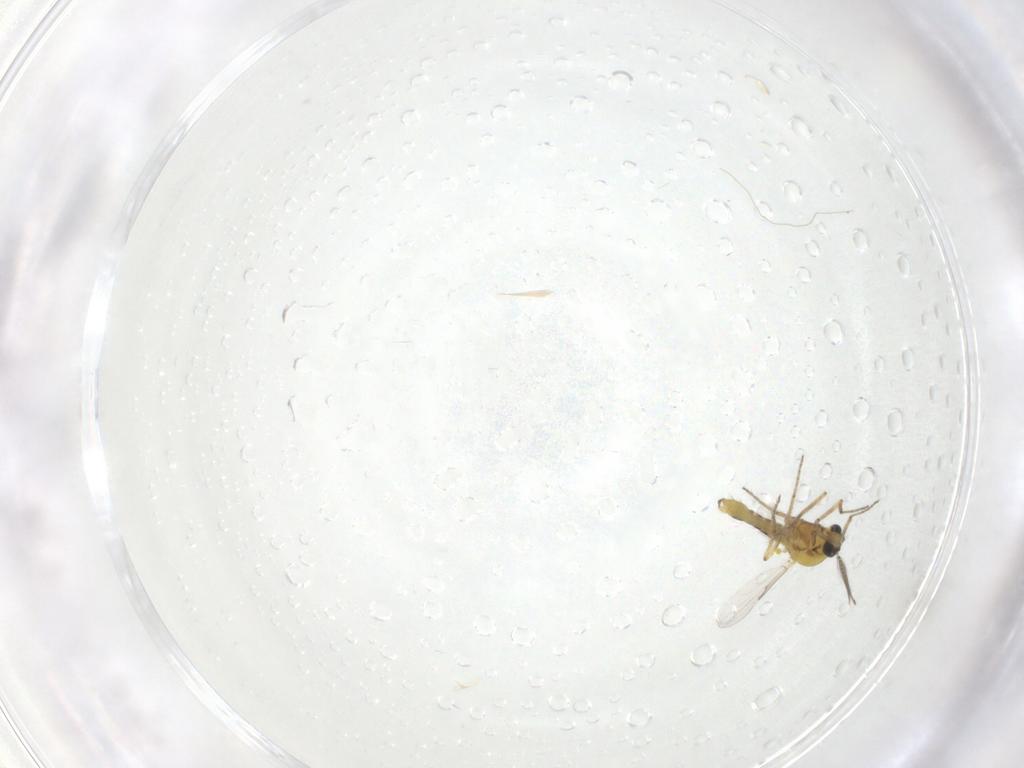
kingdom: Animalia
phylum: Arthropoda
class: Insecta
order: Diptera
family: Ceratopogonidae
